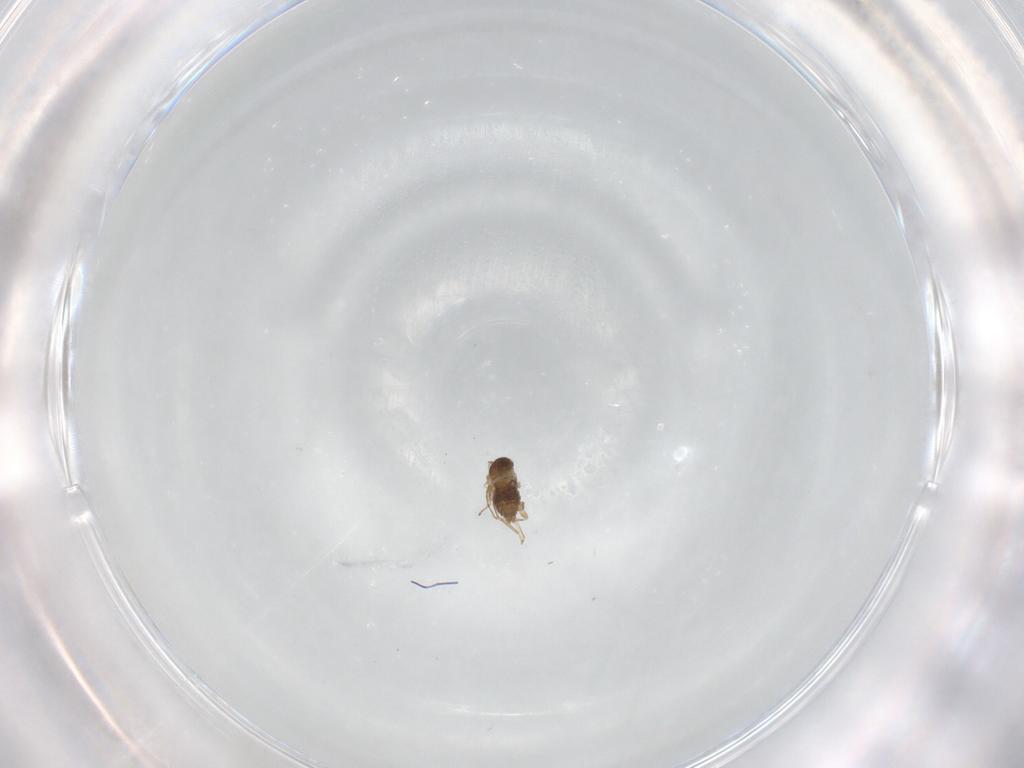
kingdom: Animalia
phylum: Arthropoda
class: Insecta
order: Diptera
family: Cecidomyiidae
